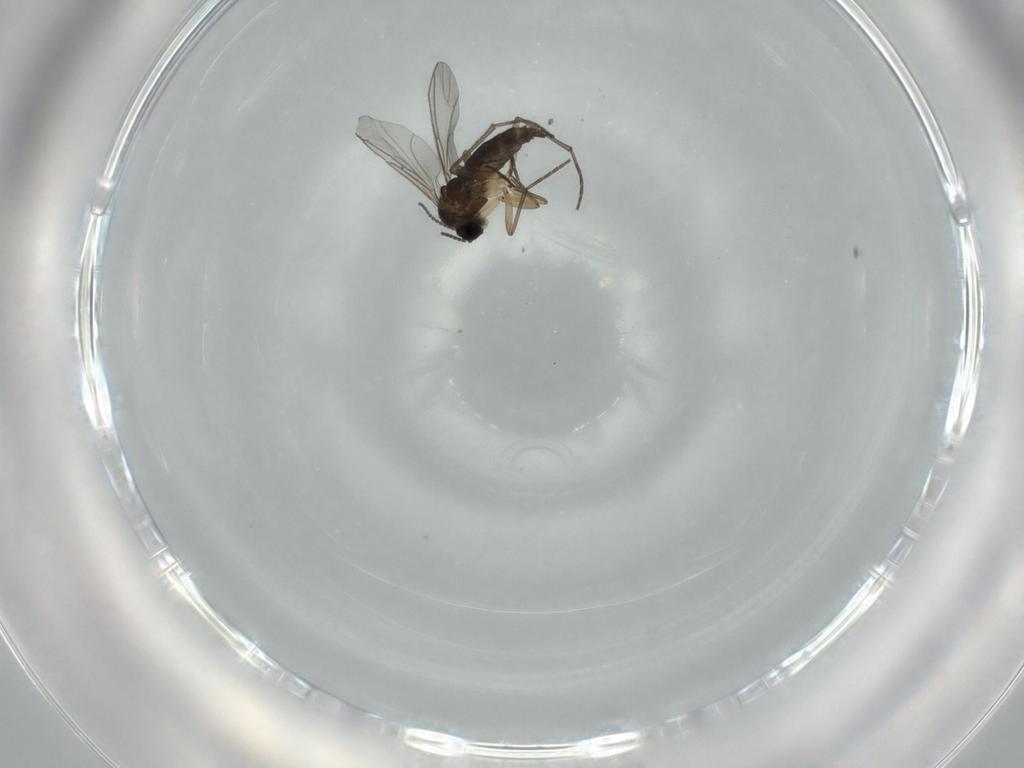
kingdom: Animalia
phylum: Arthropoda
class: Insecta
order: Diptera
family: Sciaridae
